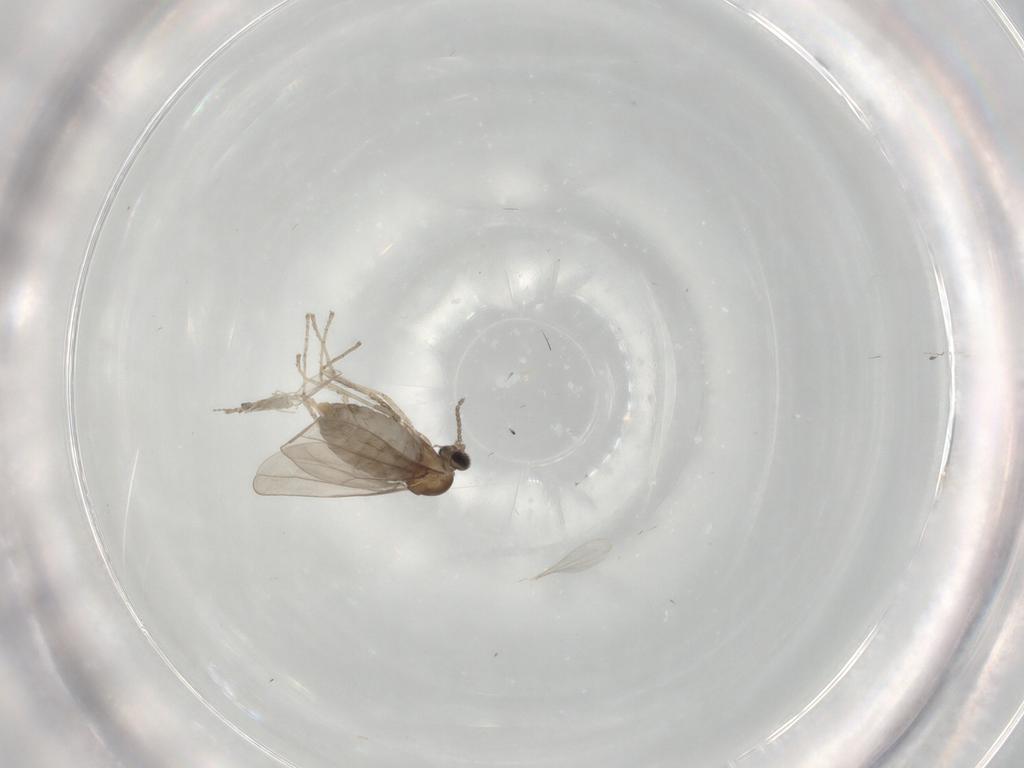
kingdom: Animalia
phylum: Arthropoda
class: Insecta
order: Diptera
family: Cecidomyiidae
